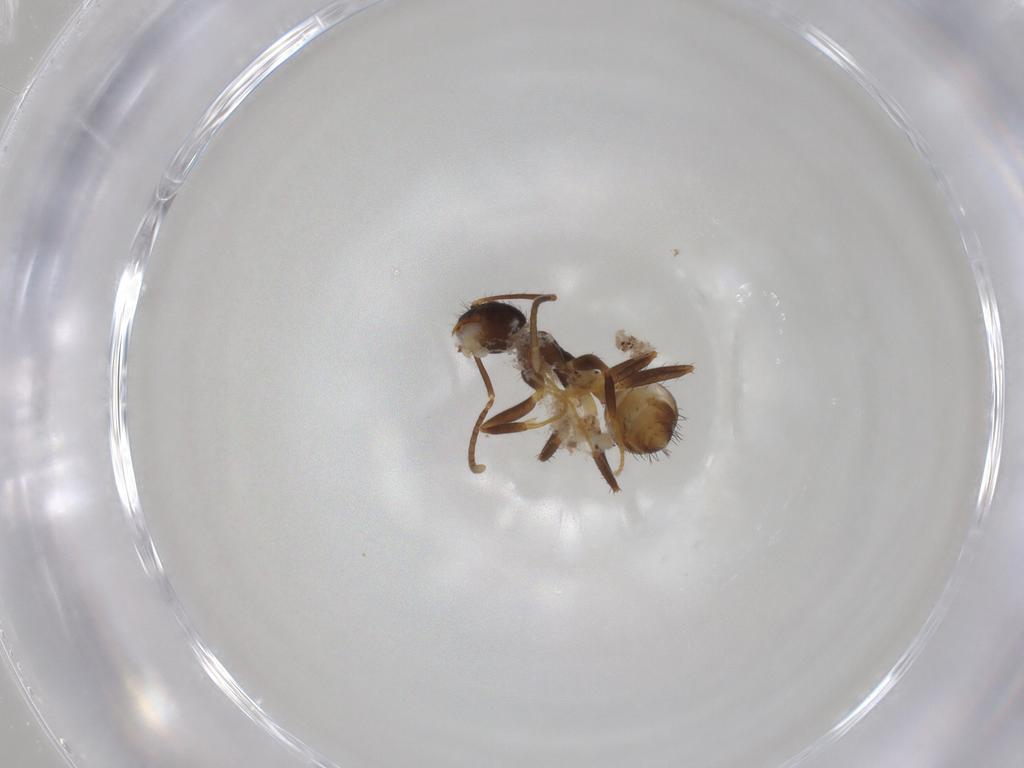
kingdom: Animalia
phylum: Arthropoda
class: Insecta
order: Hymenoptera
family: Formicidae
